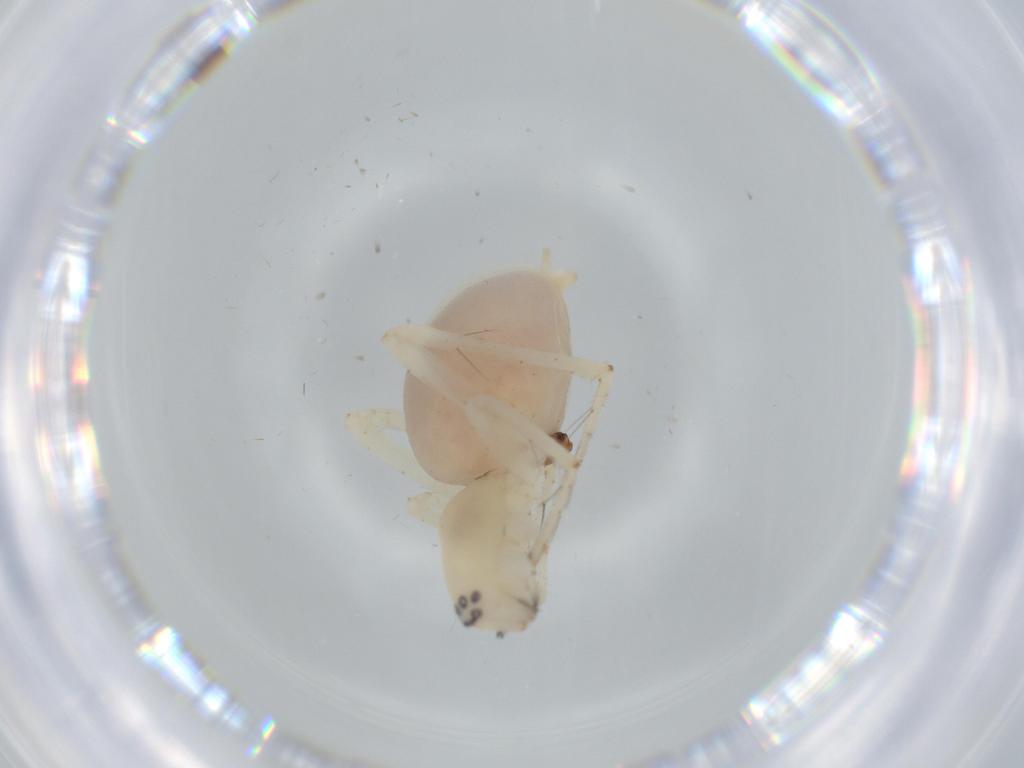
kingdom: Animalia
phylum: Arthropoda
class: Arachnida
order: Araneae
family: Anyphaenidae
